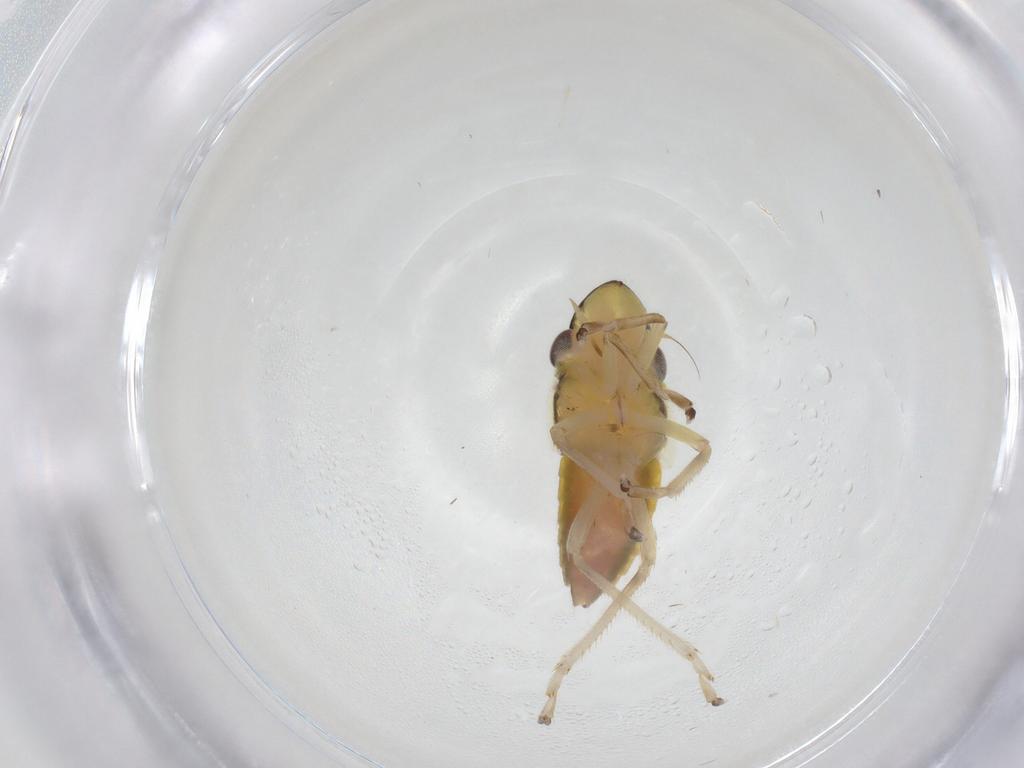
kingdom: Animalia
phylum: Arthropoda
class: Insecta
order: Hemiptera
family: Cicadellidae
